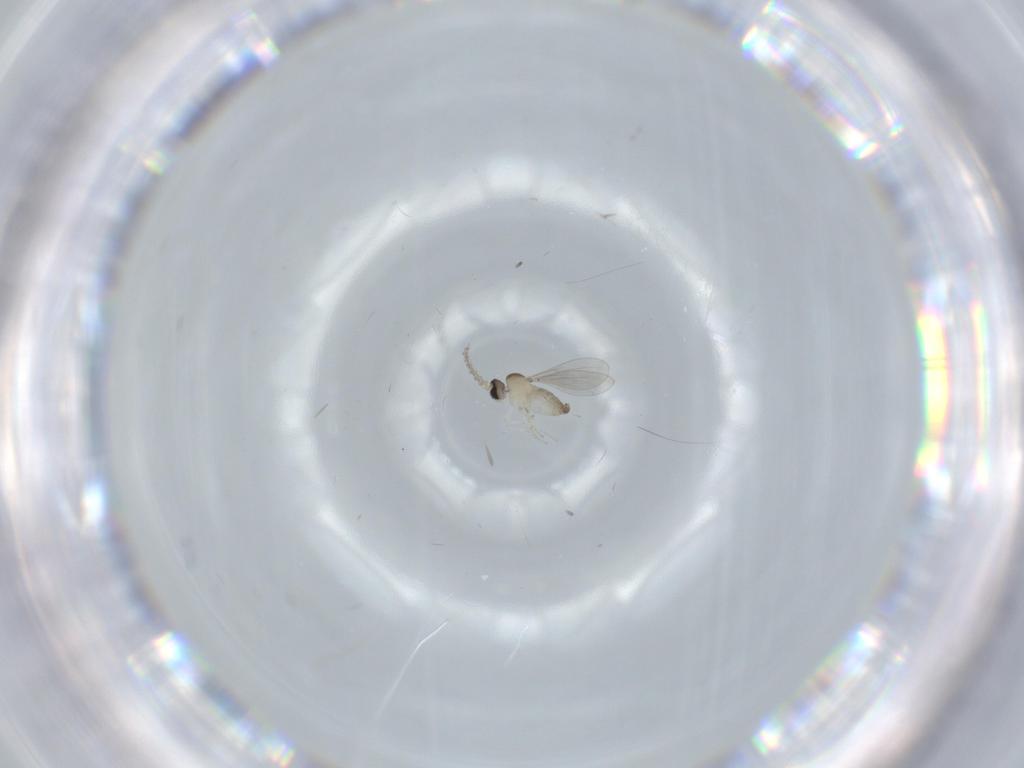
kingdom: Animalia
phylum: Arthropoda
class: Insecta
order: Diptera
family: Phoridae
